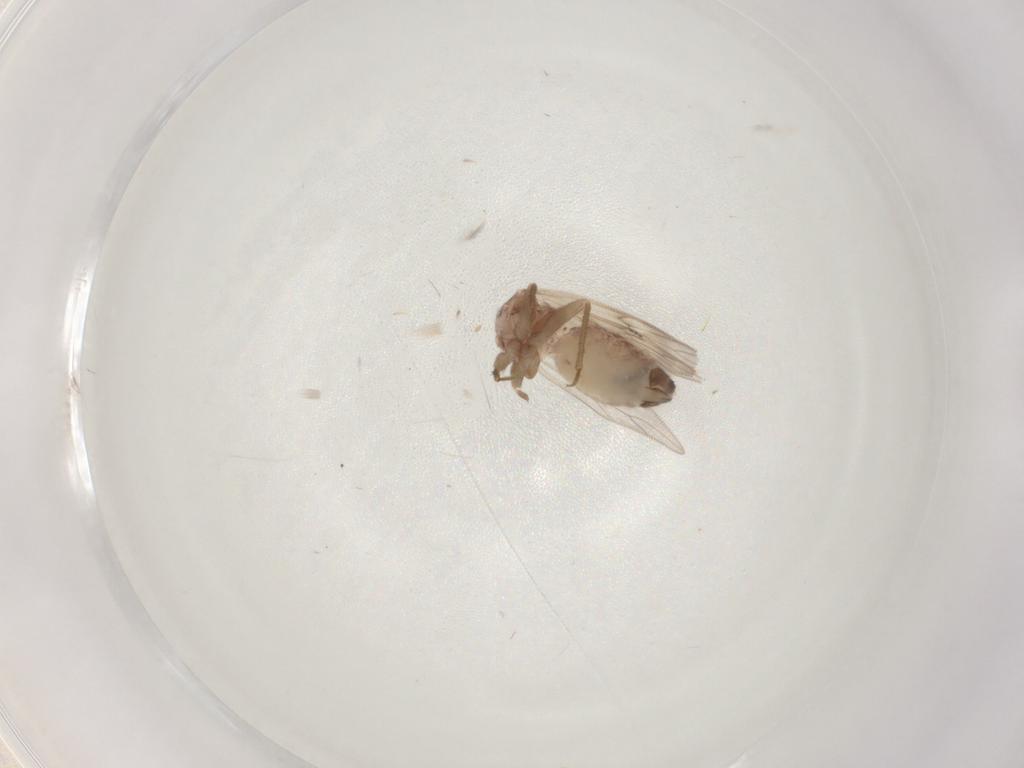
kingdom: Animalia
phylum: Arthropoda
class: Insecta
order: Psocodea
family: Lepidopsocidae
